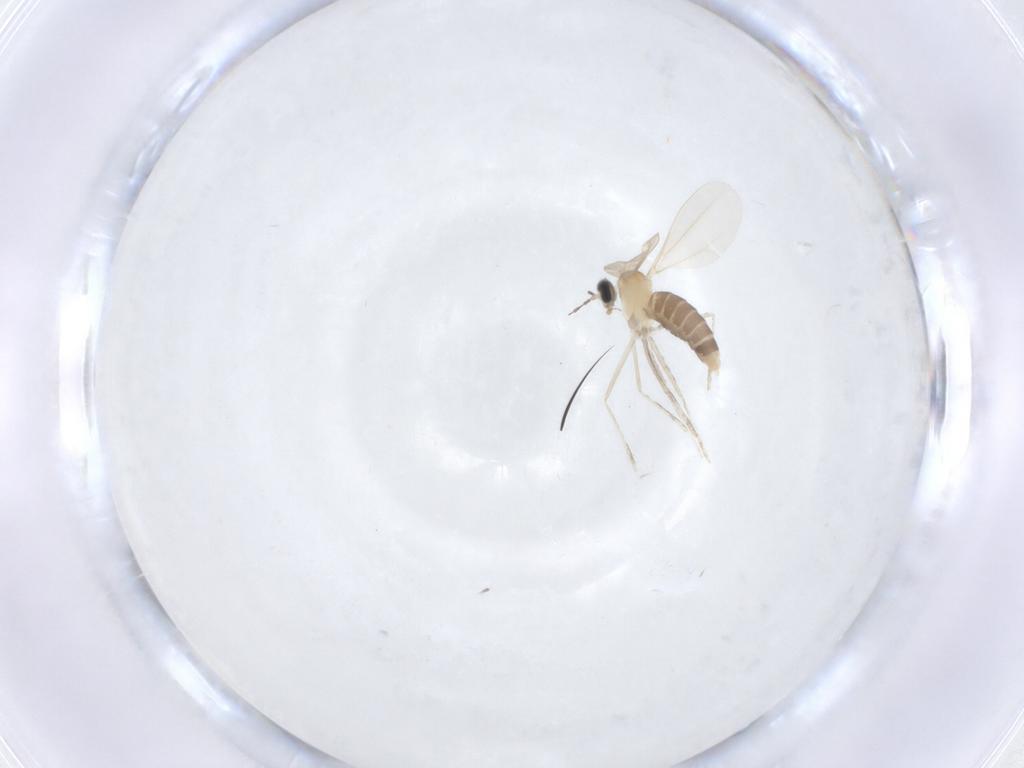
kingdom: Animalia
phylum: Arthropoda
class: Insecta
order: Diptera
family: Cecidomyiidae
